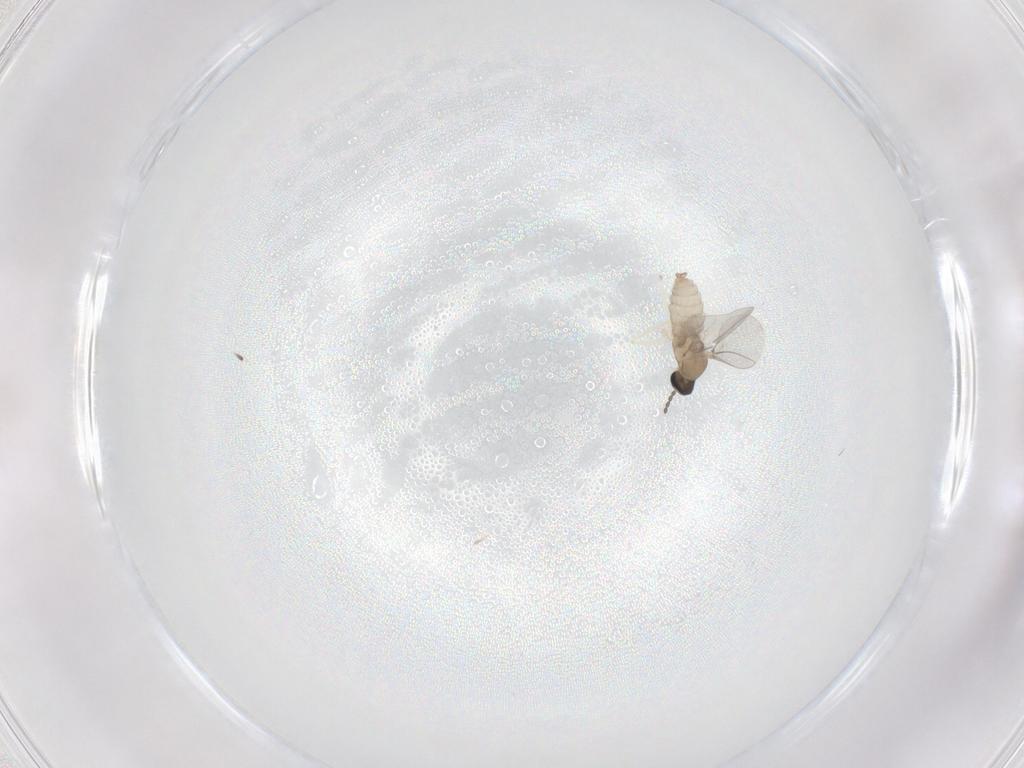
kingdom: Animalia
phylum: Arthropoda
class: Insecta
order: Diptera
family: Cecidomyiidae
